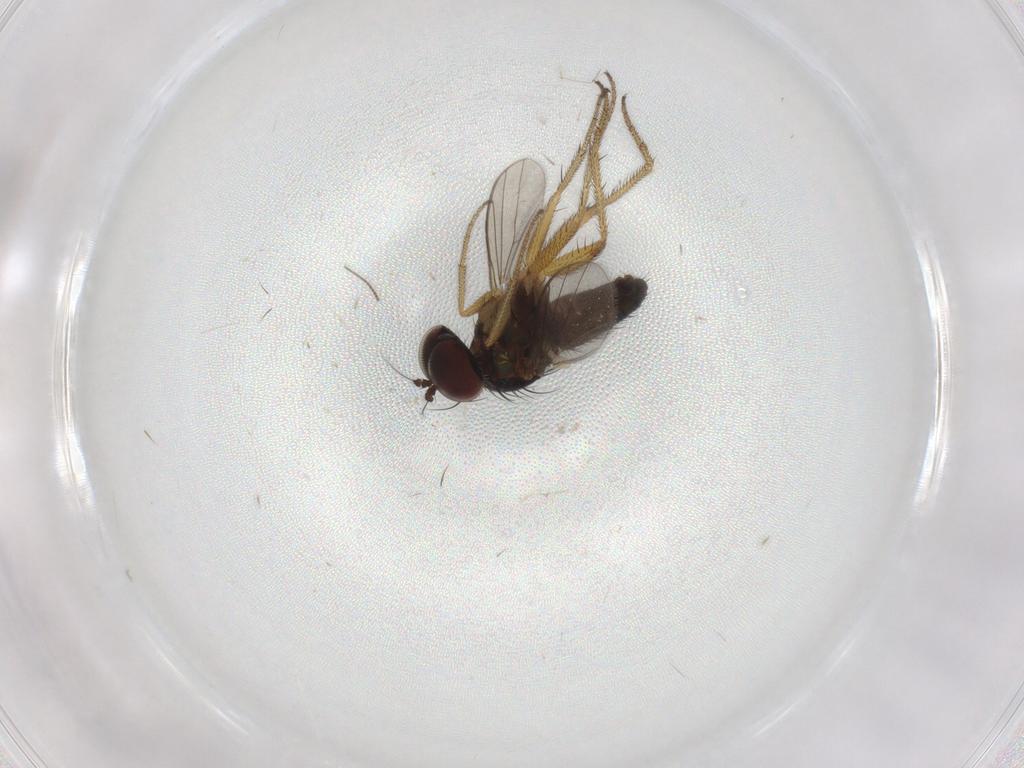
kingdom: Animalia
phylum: Arthropoda
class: Insecta
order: Diptera
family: Chironomidae
